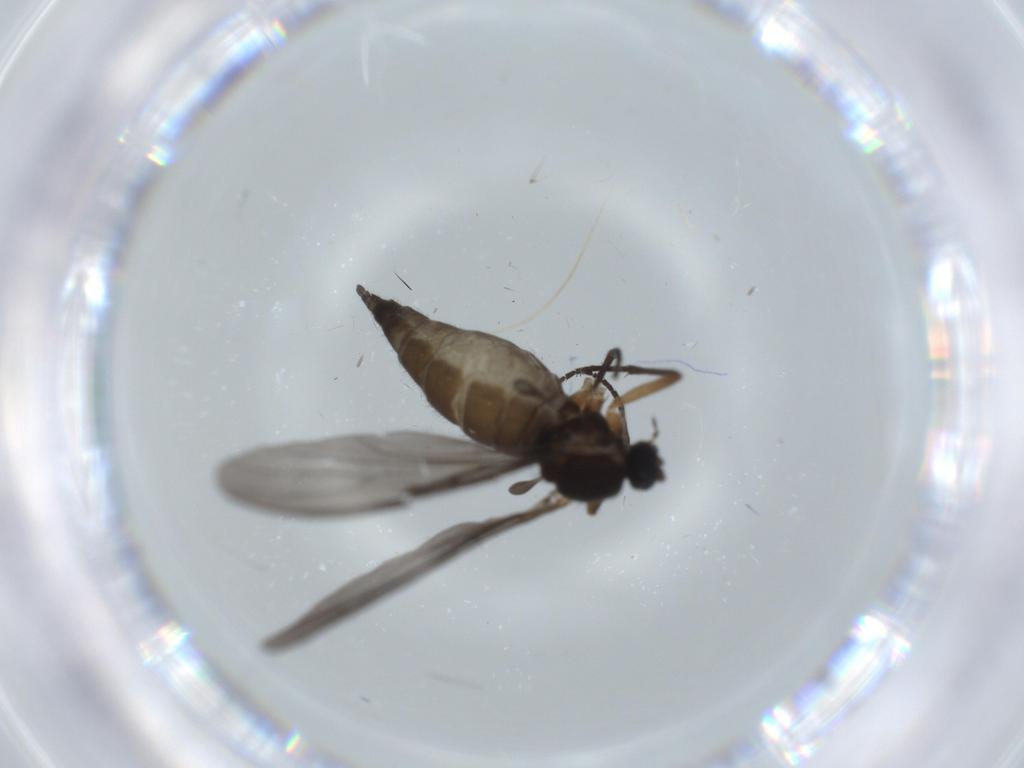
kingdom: Animalia
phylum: Arthropoda
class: Insecta
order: Diptera
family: Sciaridae
